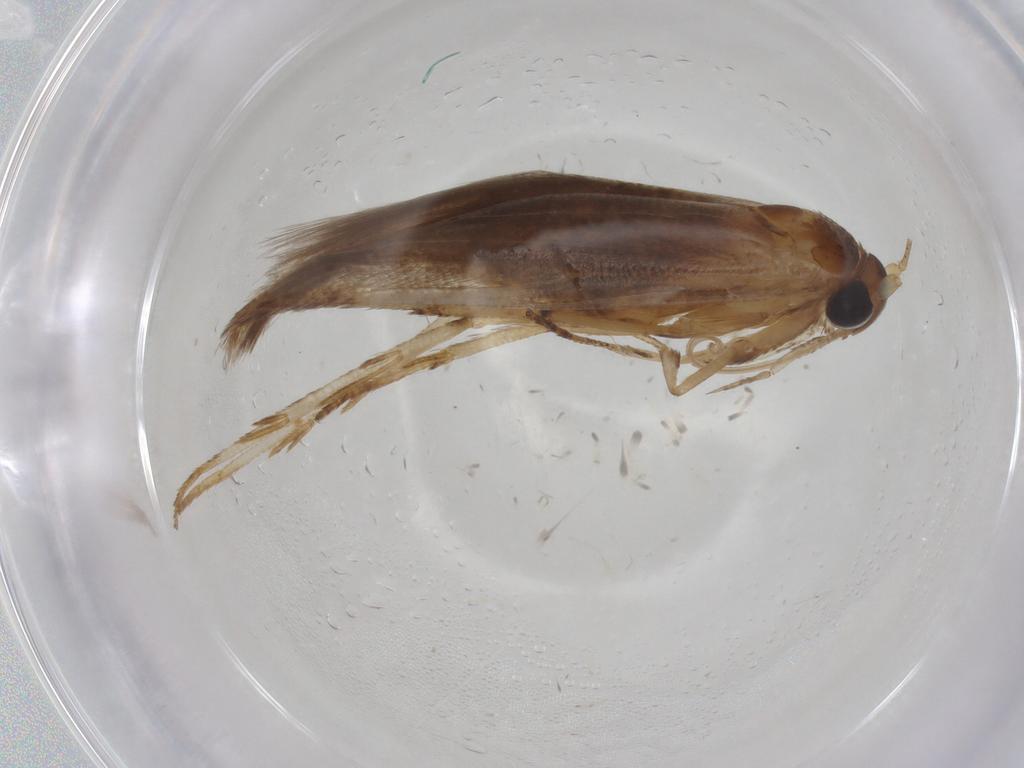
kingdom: Animalia
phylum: Arthropoda
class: Insecta
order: Lepidoptera
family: Blastobasidae
